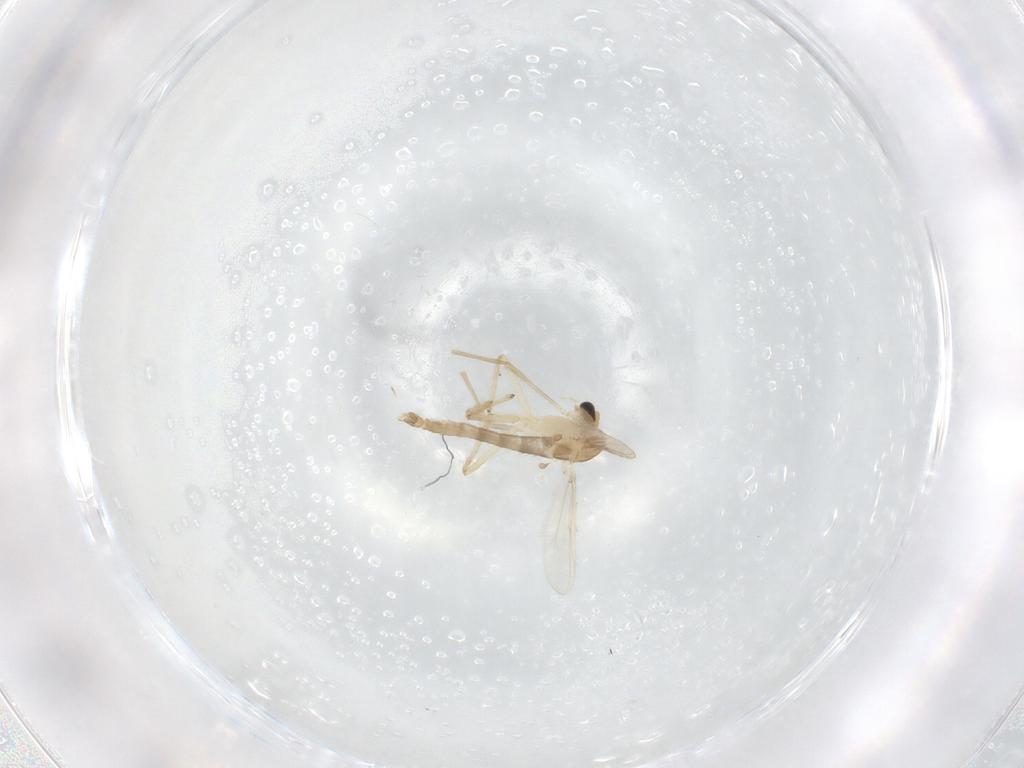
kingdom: Animalia
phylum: Arthropoda
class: Insecta
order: Diptera
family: Chironomidae
